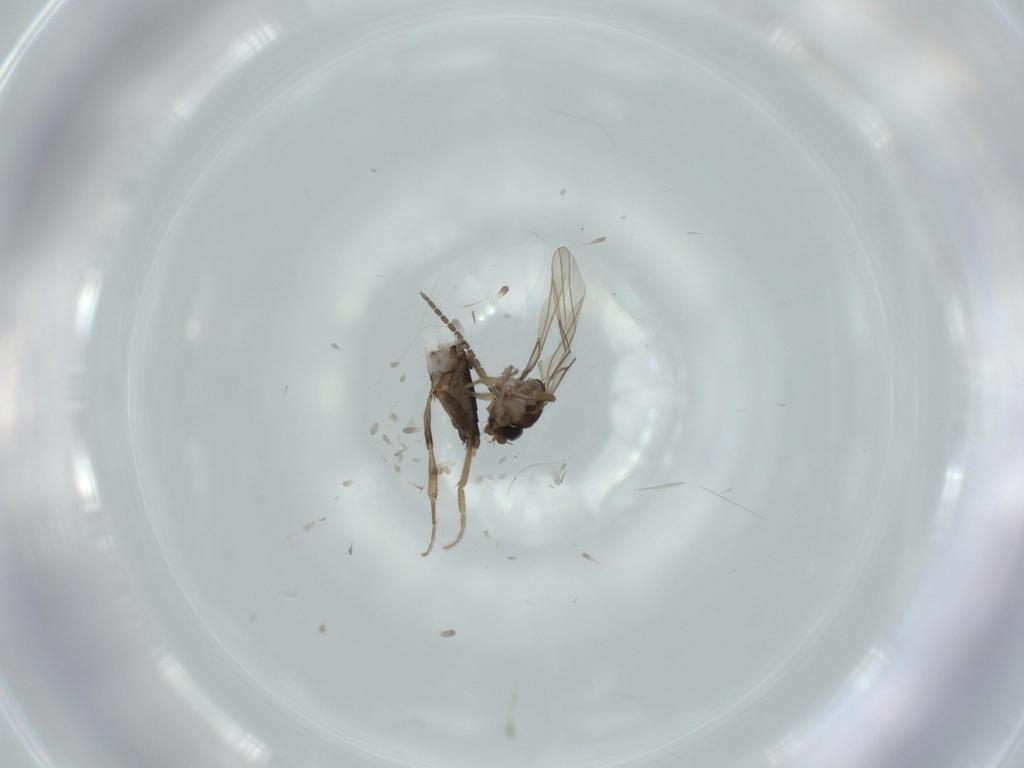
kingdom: Animalia
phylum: Arthropoda
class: Insecta
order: Diptera
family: Phoridae
